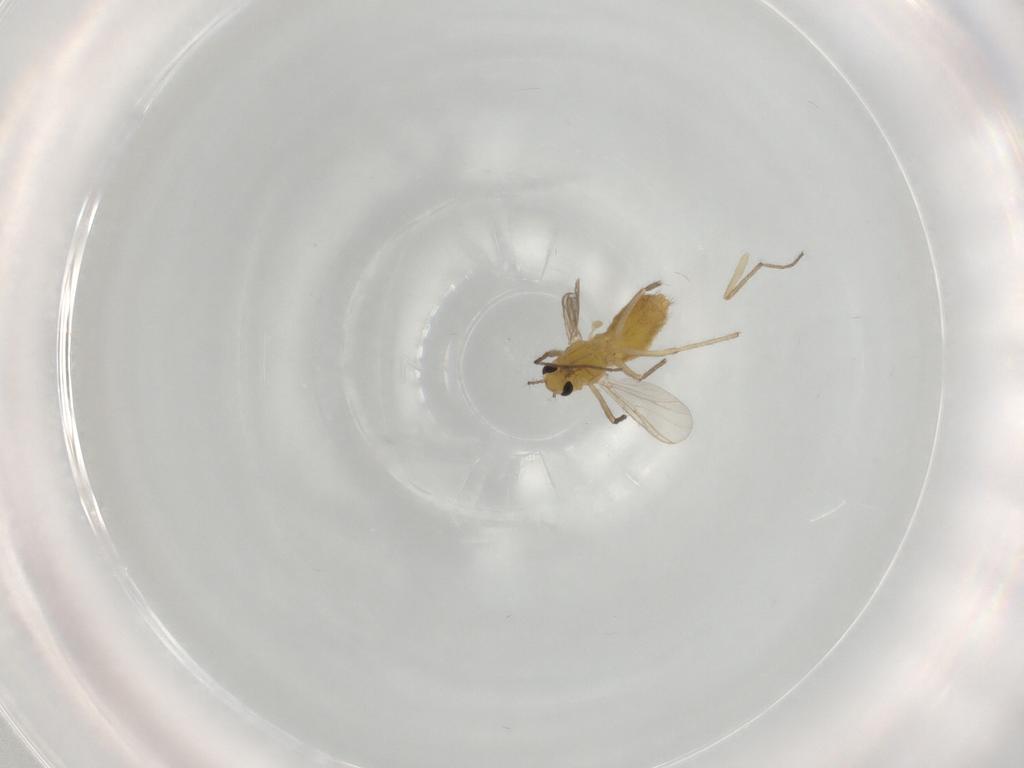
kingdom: Animalia
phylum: Arthropoda
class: Insecta
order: Diptera
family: Chironomidae
